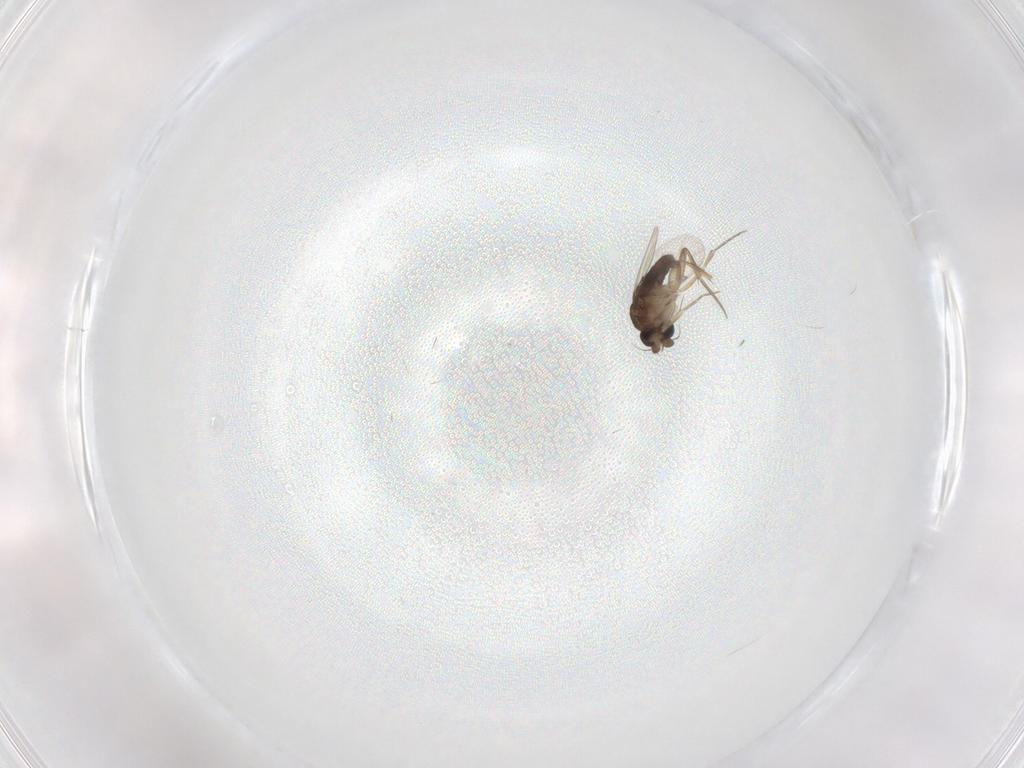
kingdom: Animalia
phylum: Arthropoda
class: Insecta
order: Diptera
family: Phoridae
